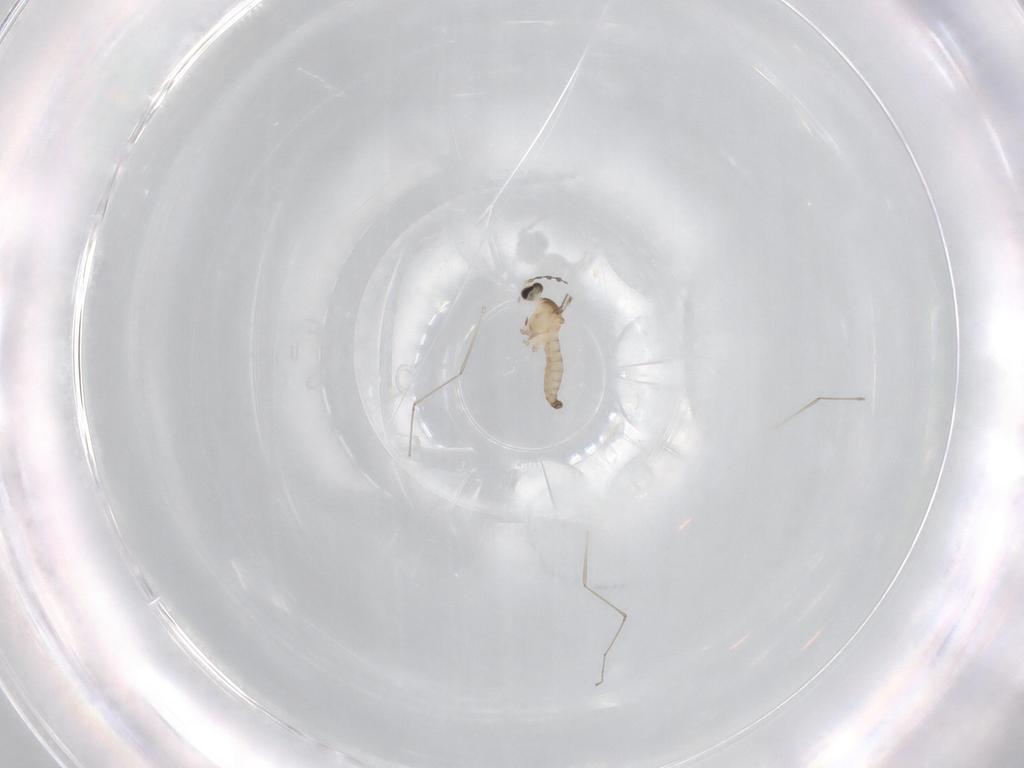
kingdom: Animalia
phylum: Arthropoda
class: Insecta
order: Diptera
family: Cecidomyiidae
